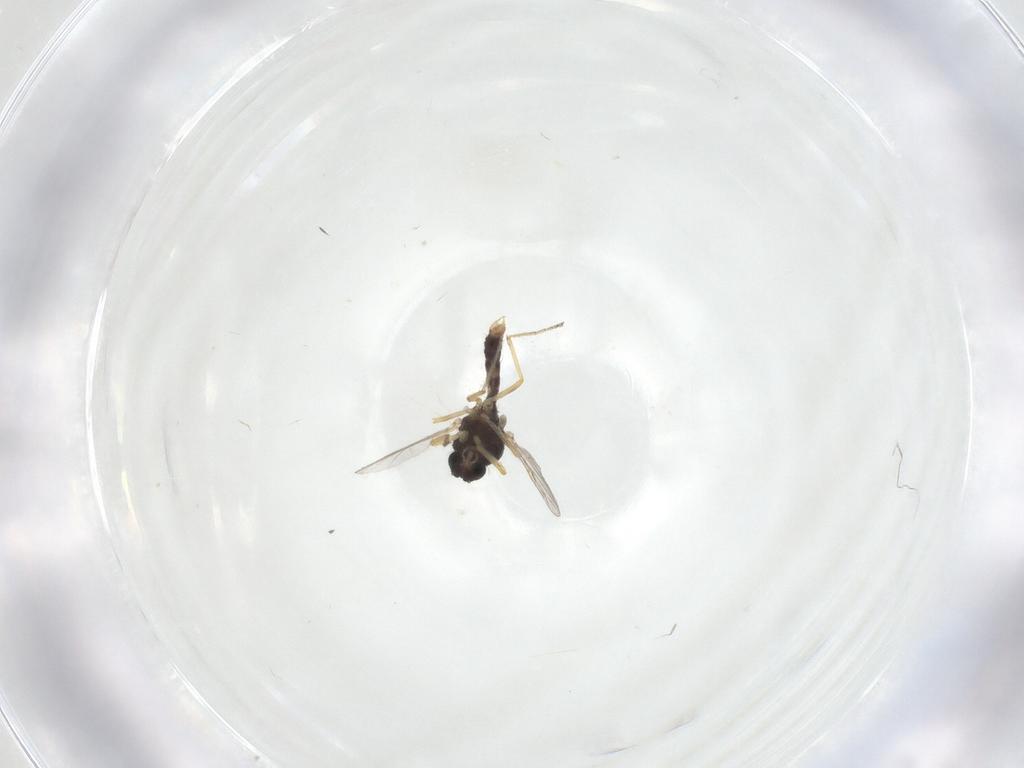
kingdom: Animalia
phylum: Arthropoda
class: Insecta
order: Diptera
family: Ceratopogonidae
